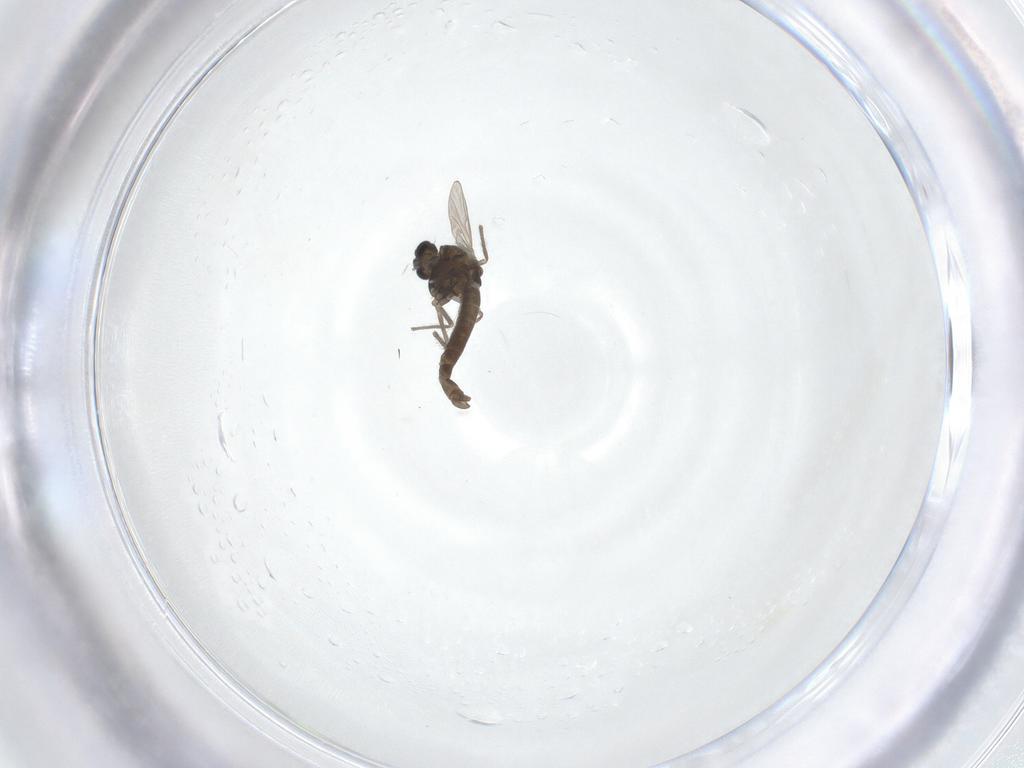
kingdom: Animalia
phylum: Arthropoda
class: Insecta
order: Diptera
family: Chironomidae
